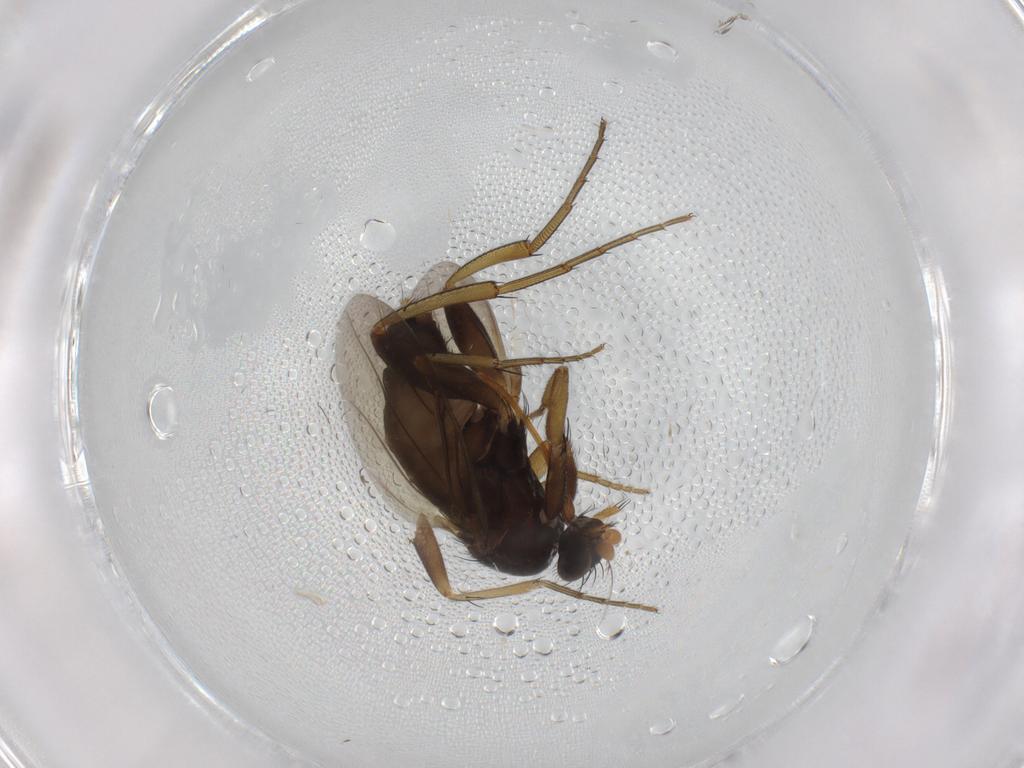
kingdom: Animalia
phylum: Arthropoda
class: Insecta
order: Diptera
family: Phoridae
